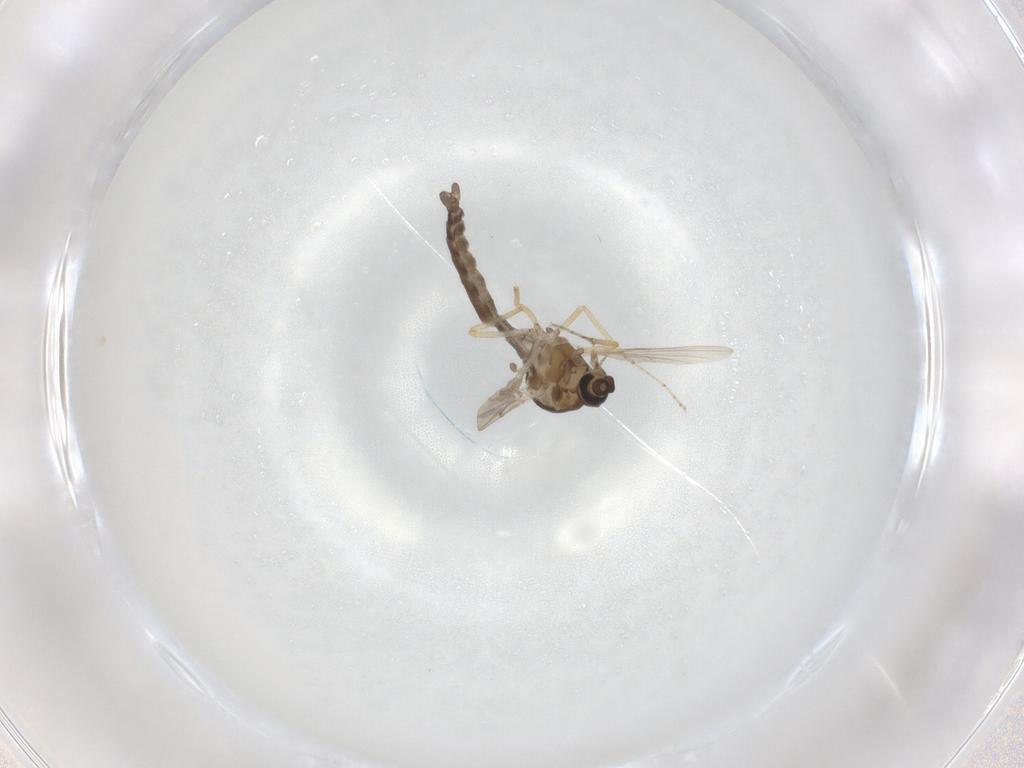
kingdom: Animalia
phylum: Arthropoda
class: Insecta
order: Diptera
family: Ceratopogonidae
